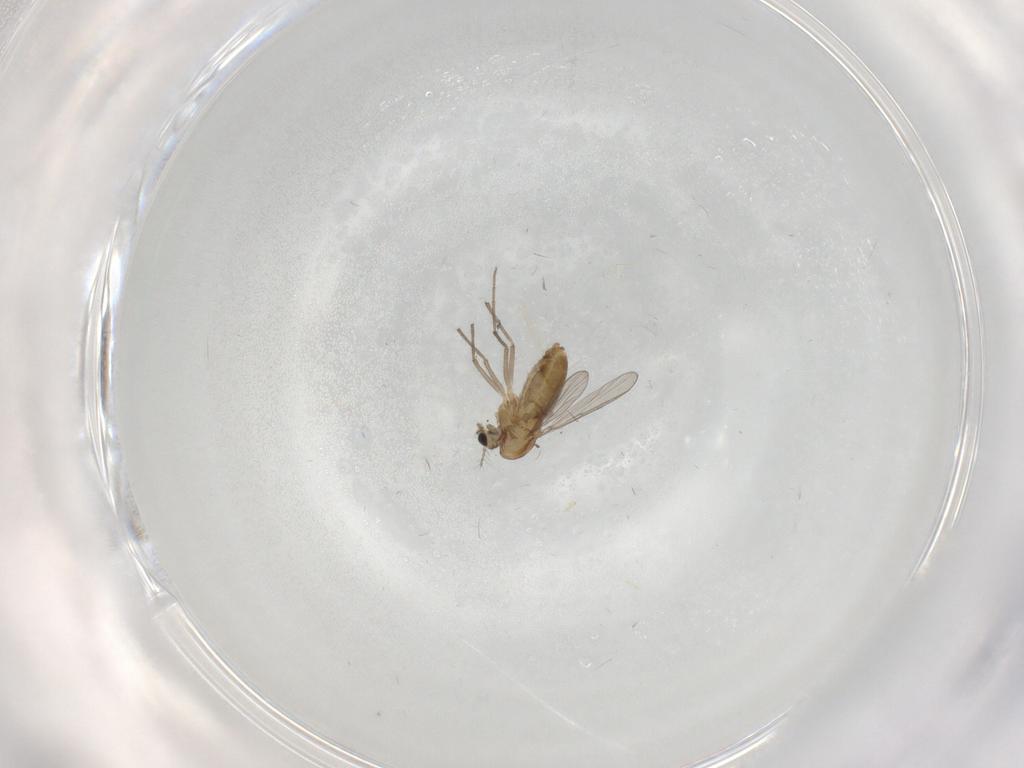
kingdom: Animalia
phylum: Arthropoda
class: Insecta
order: Diptera
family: Chironomidae
